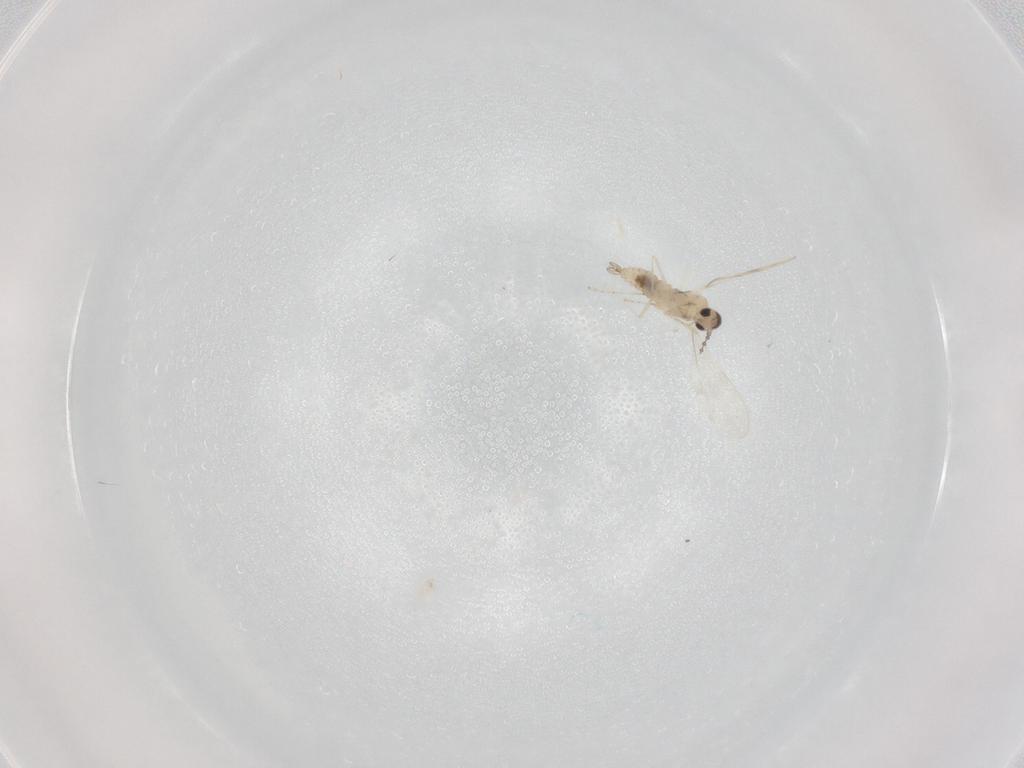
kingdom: Animalia
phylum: Arthropoda
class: Insecta
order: Diptera
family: Cecidomyiidae
